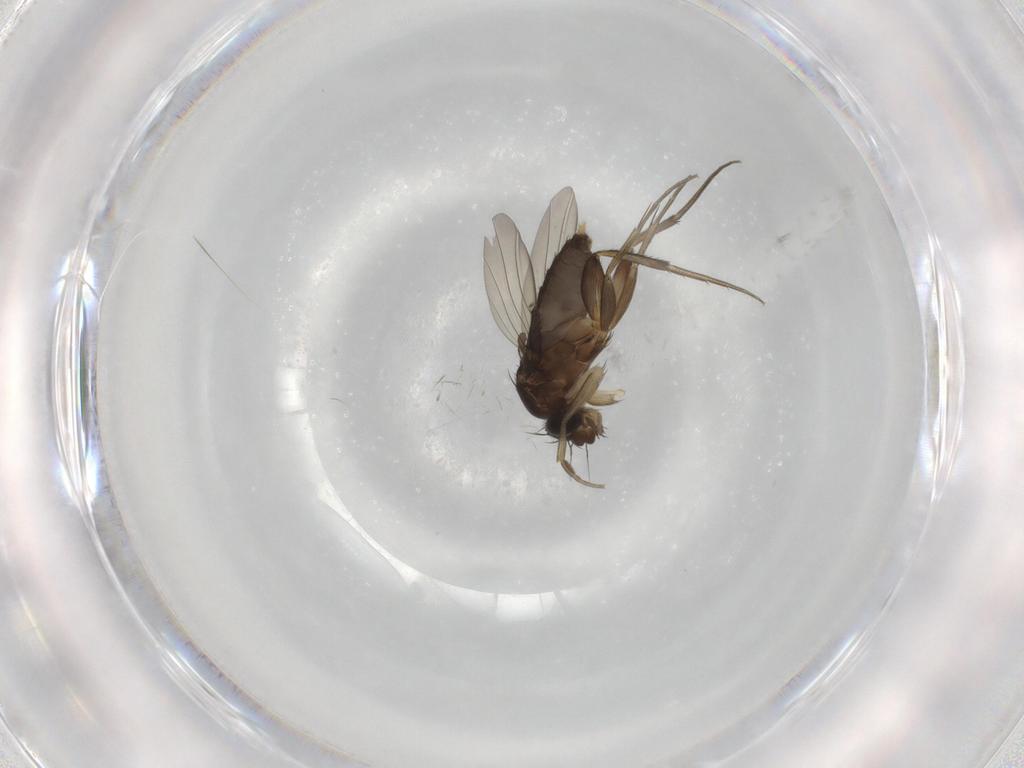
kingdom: Animalia
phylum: Arthropoda
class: Insecta
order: Diptera
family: Phoridae
